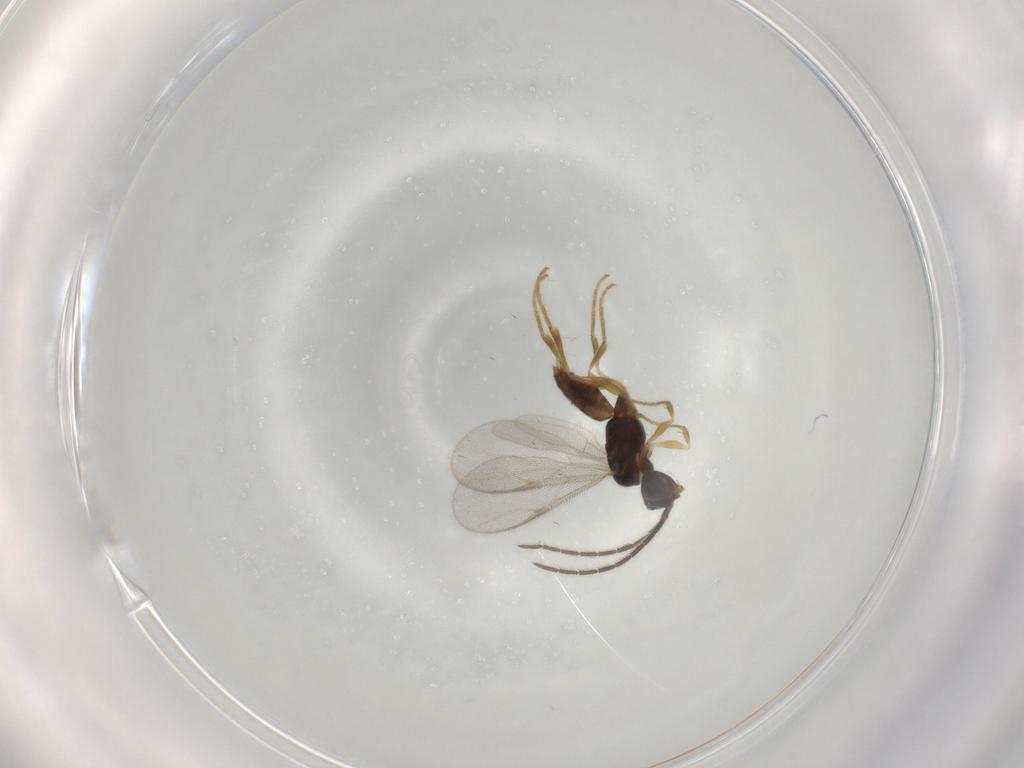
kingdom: Animalia
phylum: Arthropoda
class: Insecta
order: Hymenoptera
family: Dryinidae
